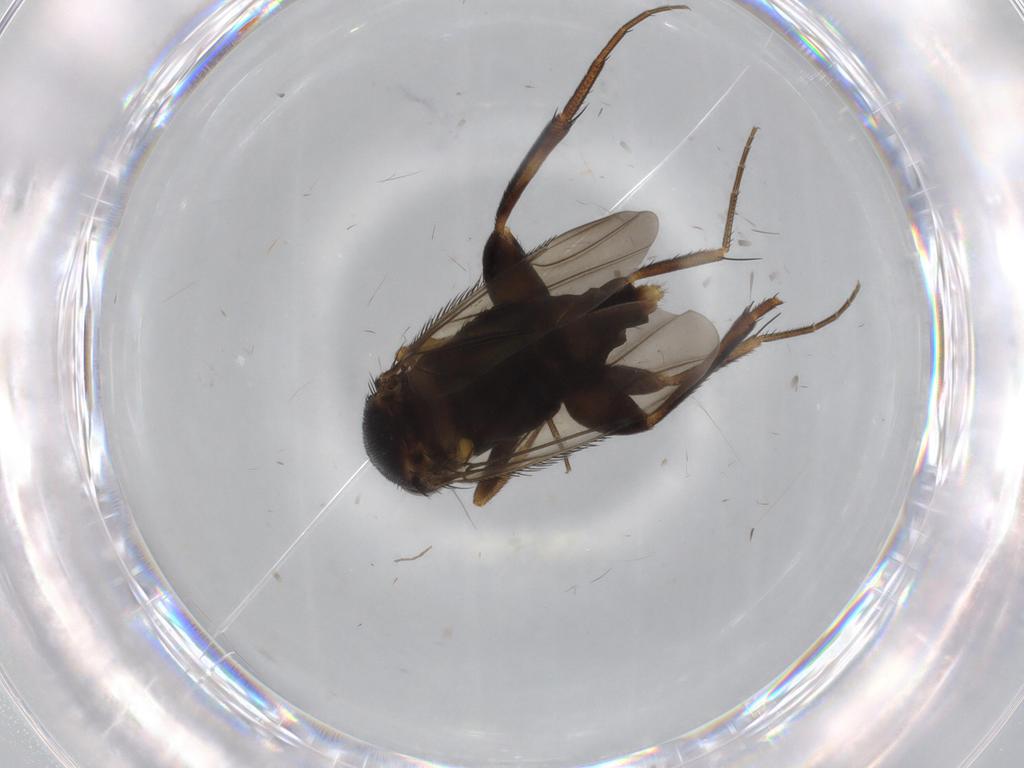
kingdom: Animalia
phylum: Arthropoda
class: Insecta
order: Diptera
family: Phoridae
